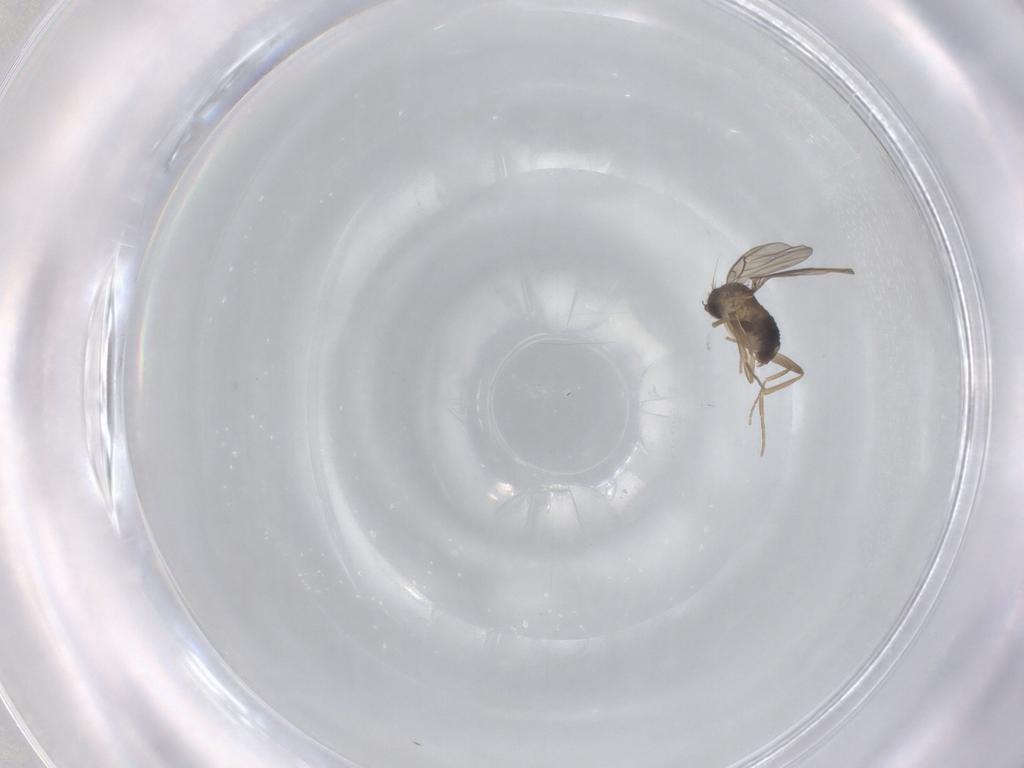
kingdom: Animalia
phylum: Arthropoda
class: Insecta
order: Diptera
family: Phoridae
